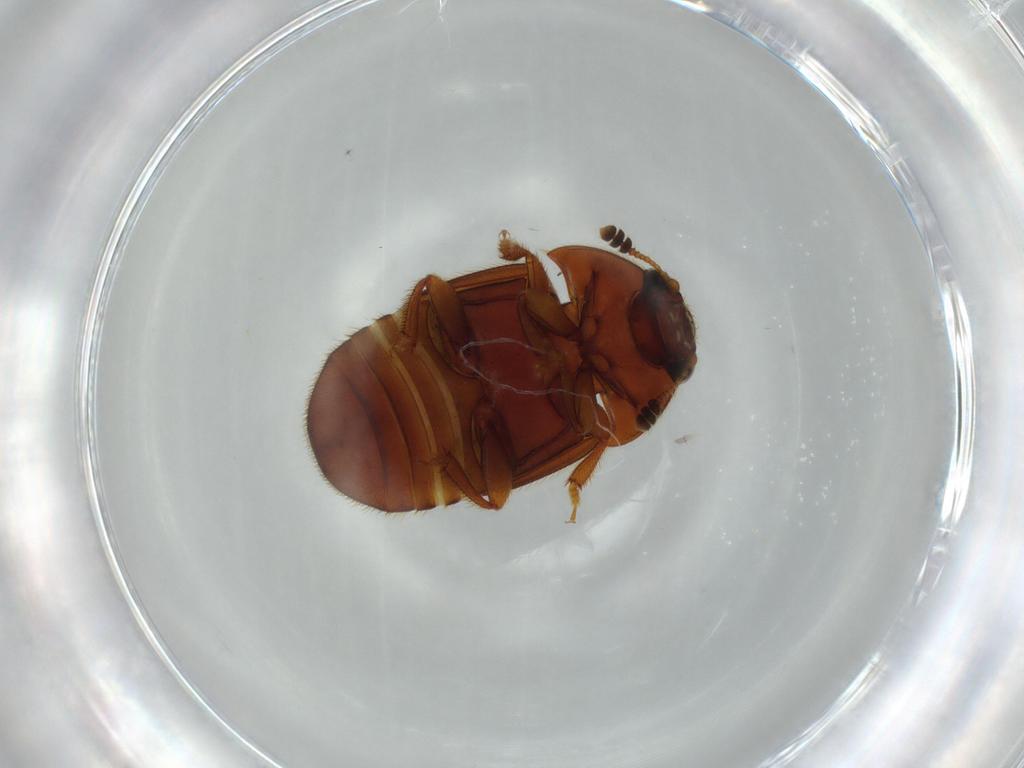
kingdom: Animalia
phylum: Arthropoda
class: Insecta
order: Coleoptera
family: Nitidulidae
